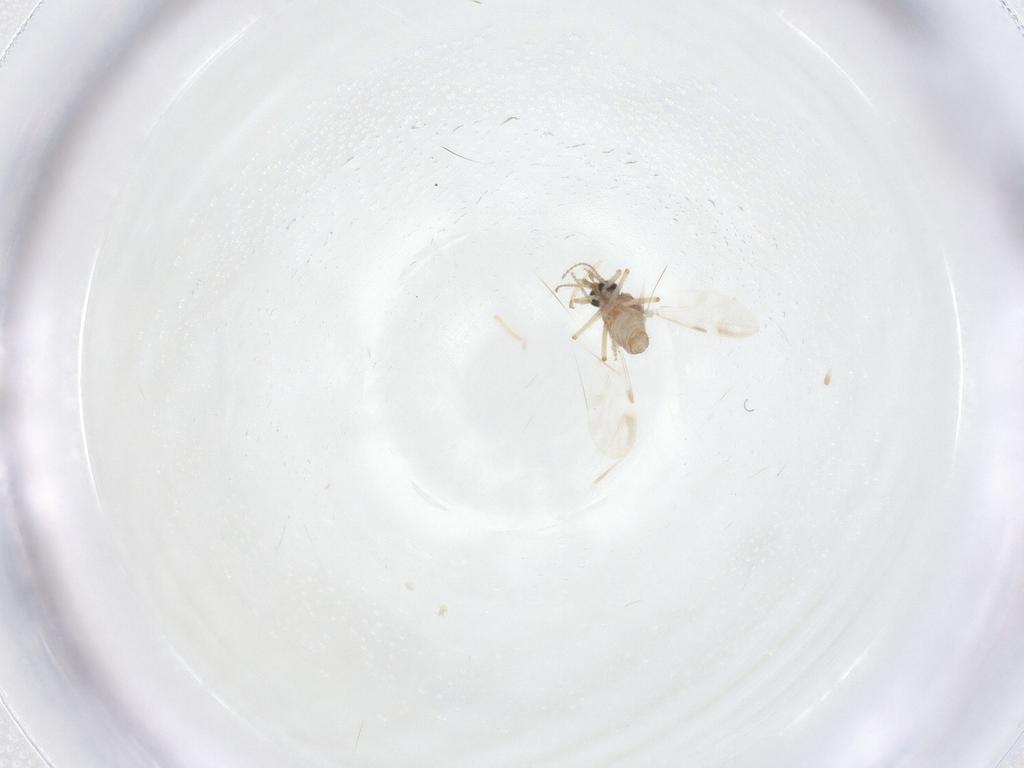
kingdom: Animalia
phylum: Arthropoda
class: Insecta
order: Diptera
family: Ceratopogonidae
